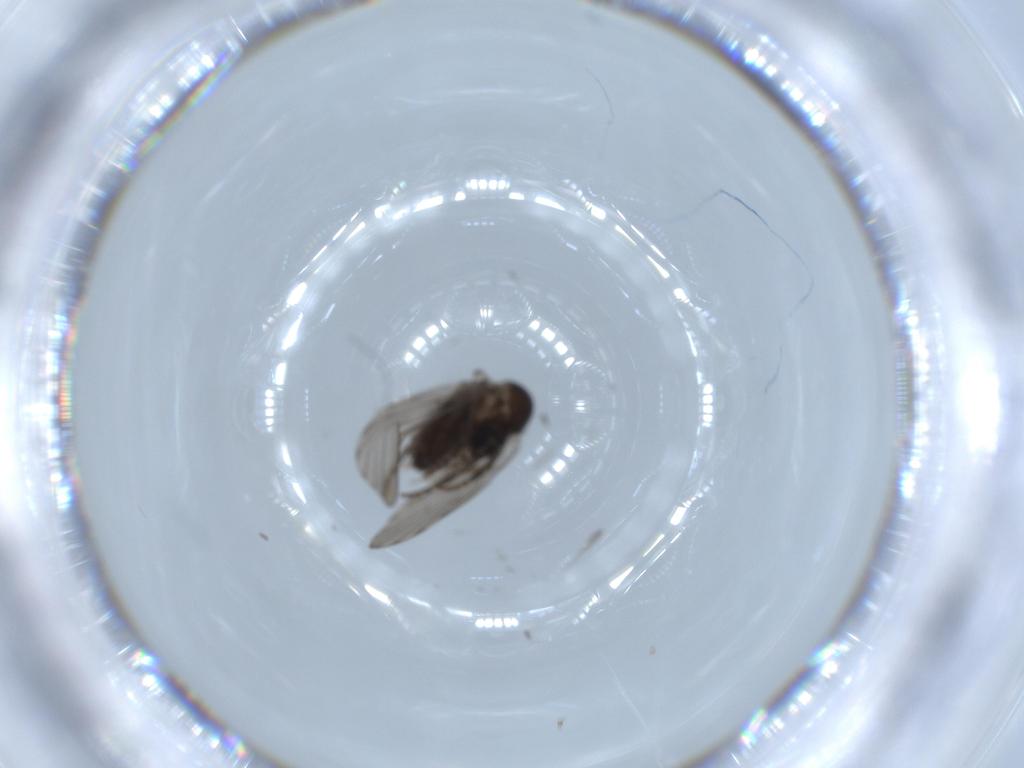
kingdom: Animalia
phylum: Arthropoda
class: Insecta
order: Diptera
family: Psychodidae
